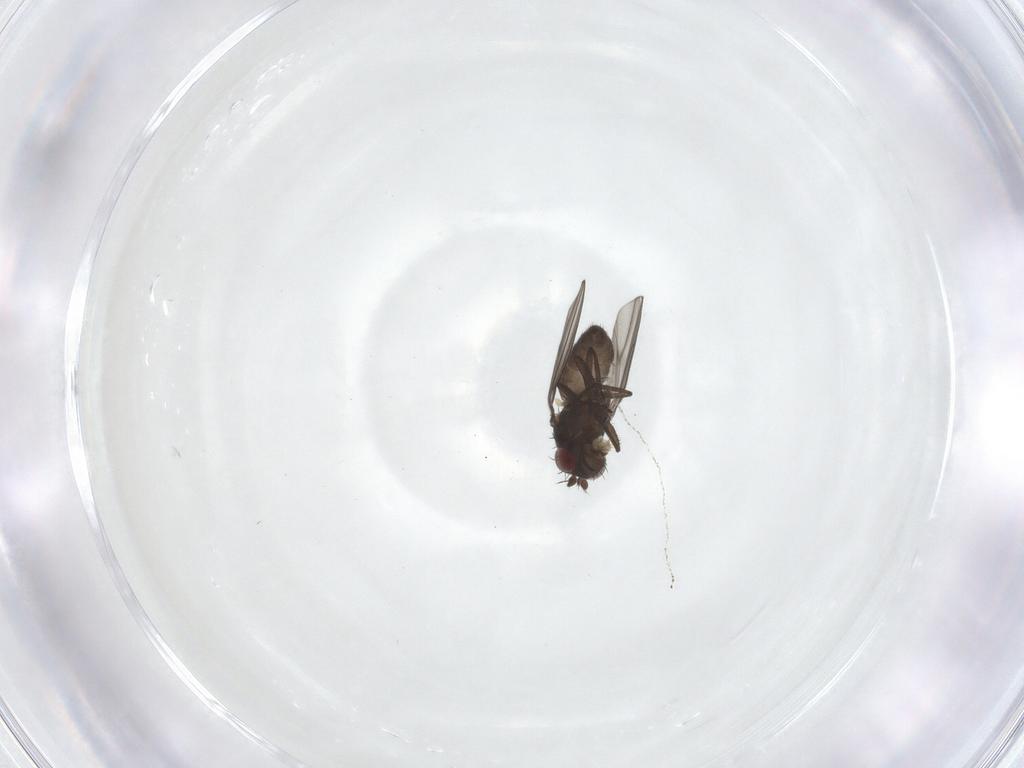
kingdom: Animalia
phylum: Arthropoda
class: Insecta
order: Diptera
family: Ephydridae
